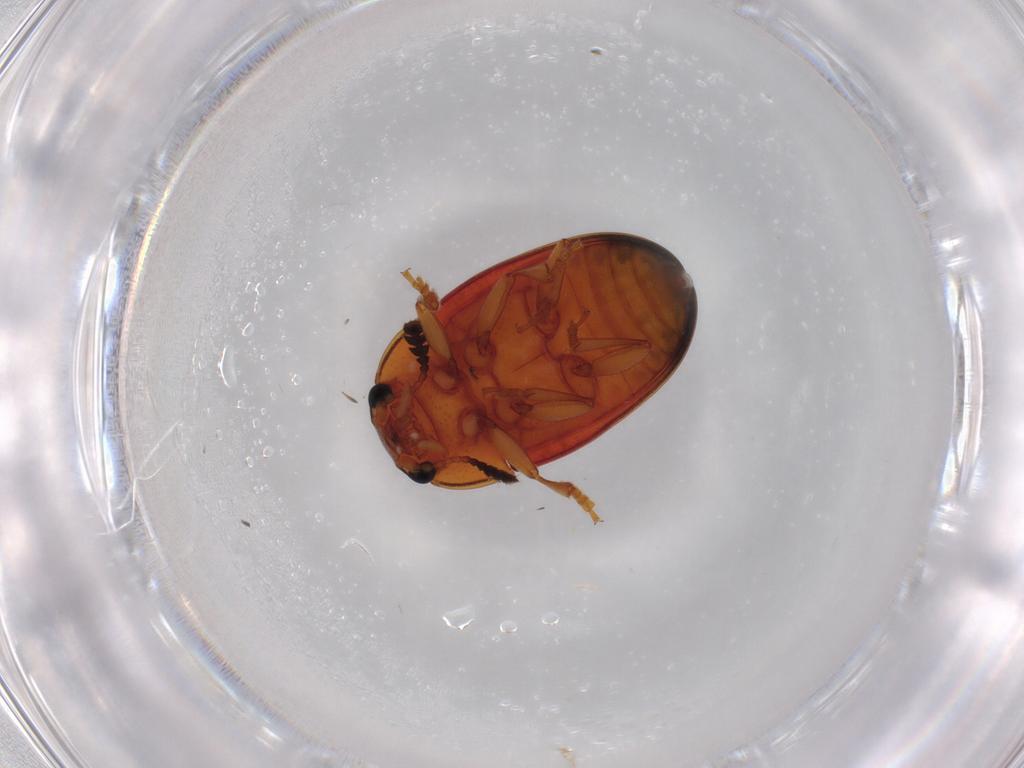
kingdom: Animalia
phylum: Arthropoda
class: Insecta
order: Coleoptera
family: Erotylidae
